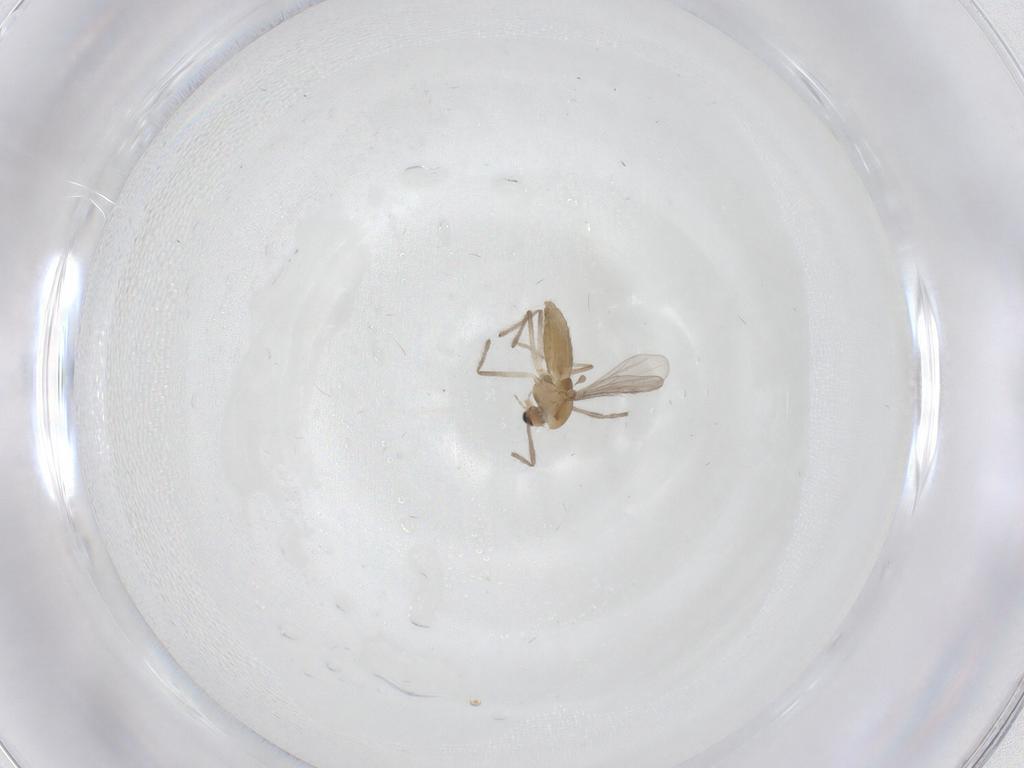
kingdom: Animalia
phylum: Arthropoda
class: Insecta
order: Diptera
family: Chironomidae
